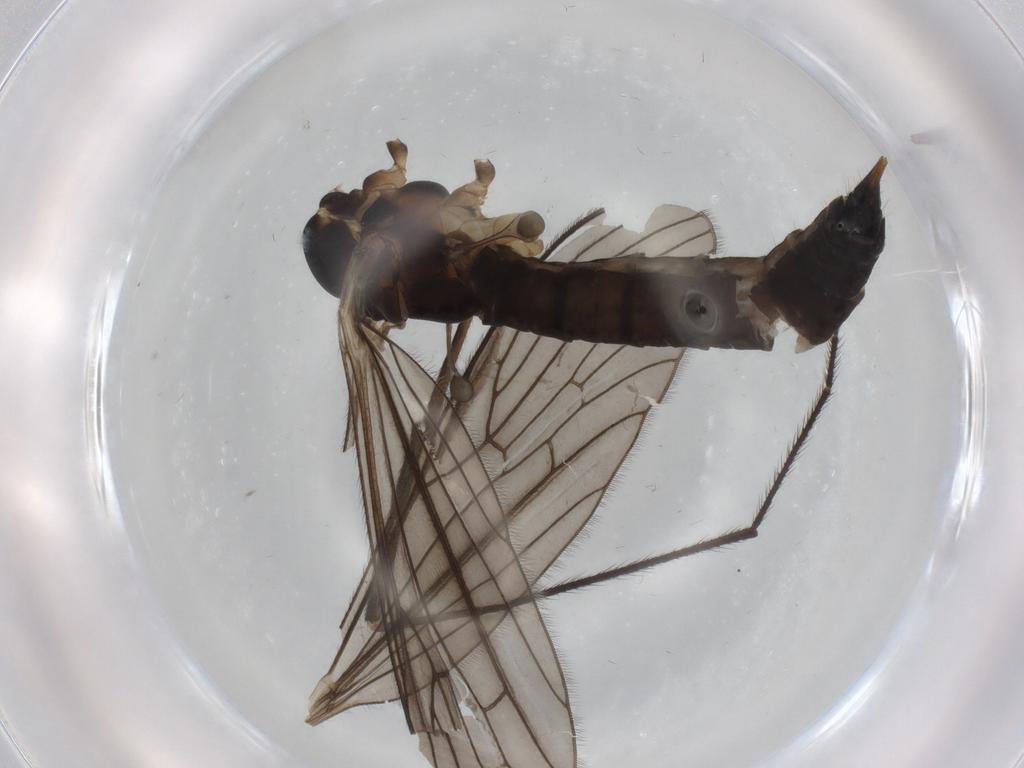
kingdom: Animalia
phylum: Arthropoda
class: Insecta
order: Diptera
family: Limoniidae
